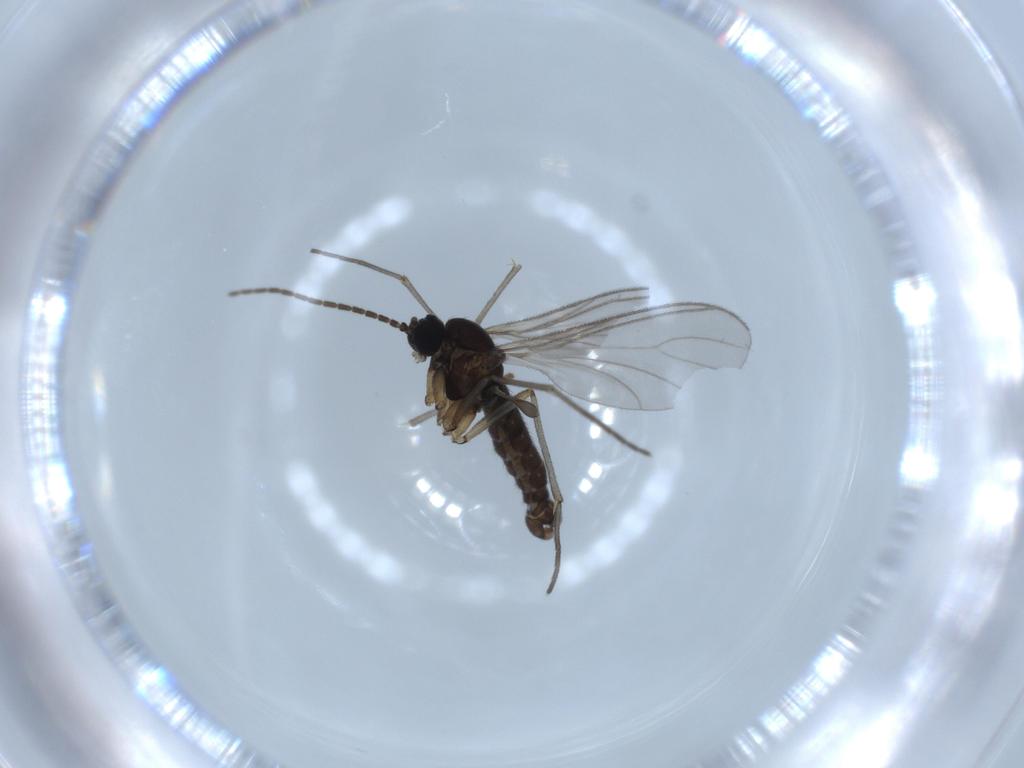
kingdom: Animalia
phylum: Arthropoda
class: Insecta
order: Diptera
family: Sciaridae
